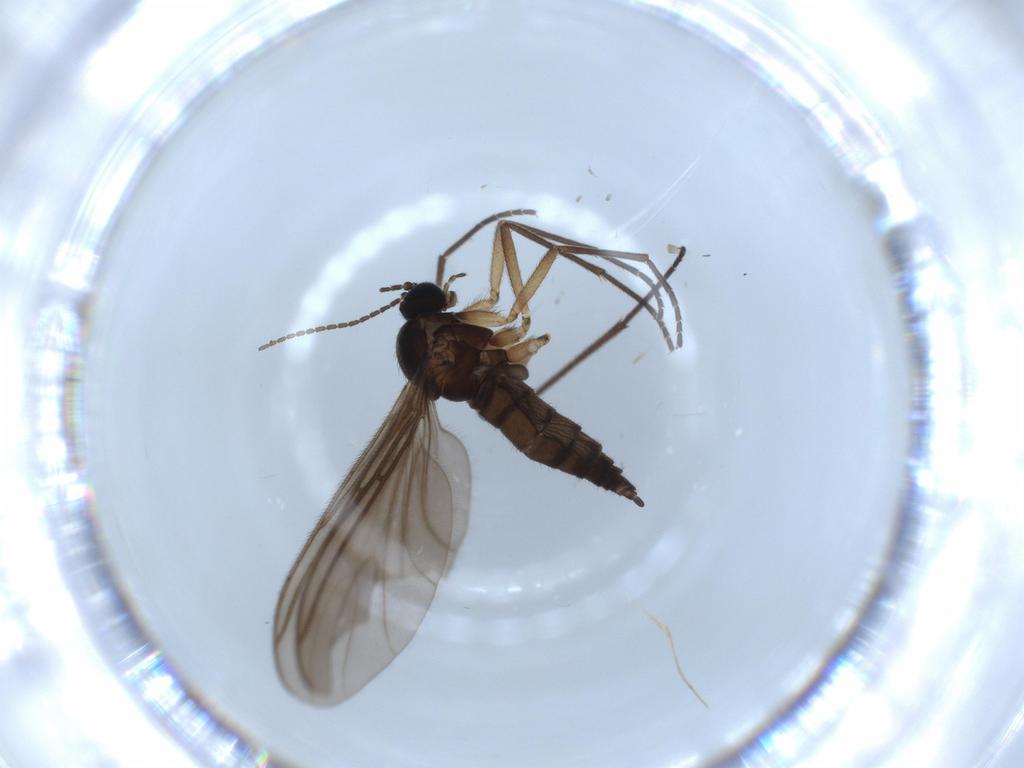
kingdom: Animalia
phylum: Arthropoda
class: Insecta
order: Diptera
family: Sciaridae
